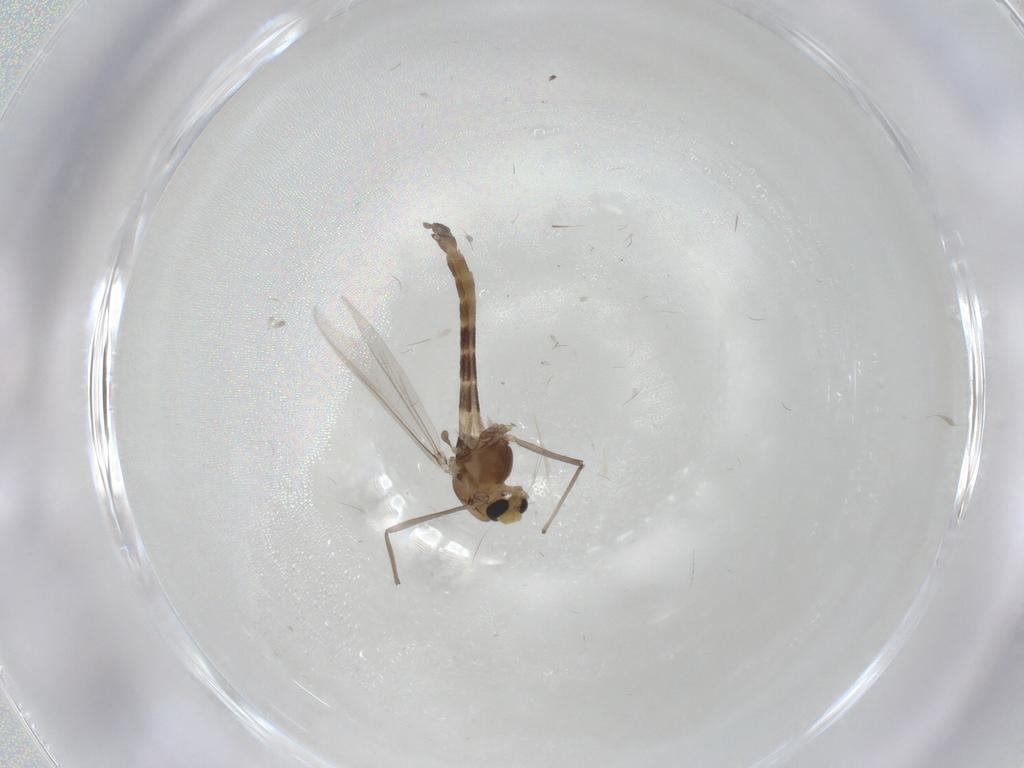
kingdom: Animalia
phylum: Arthropoda
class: Insecta
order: Diptera
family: Chironomidae
